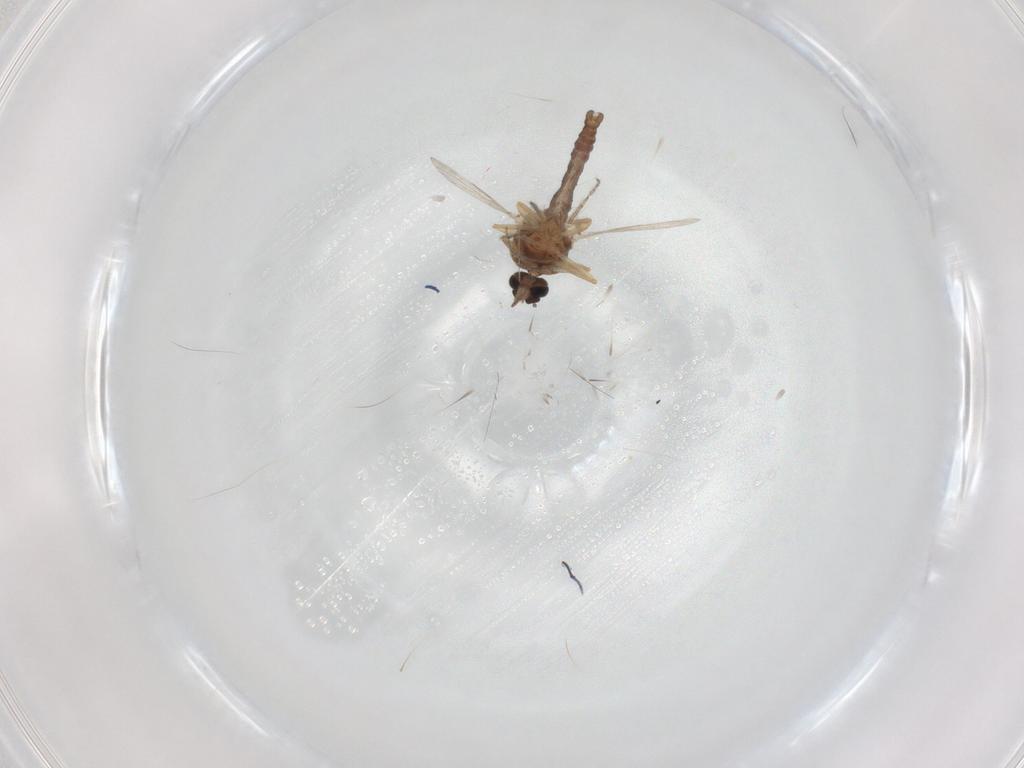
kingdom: Animalia
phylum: Arthropoda
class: Insecta
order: Diptera
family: Ceratopogonidae
